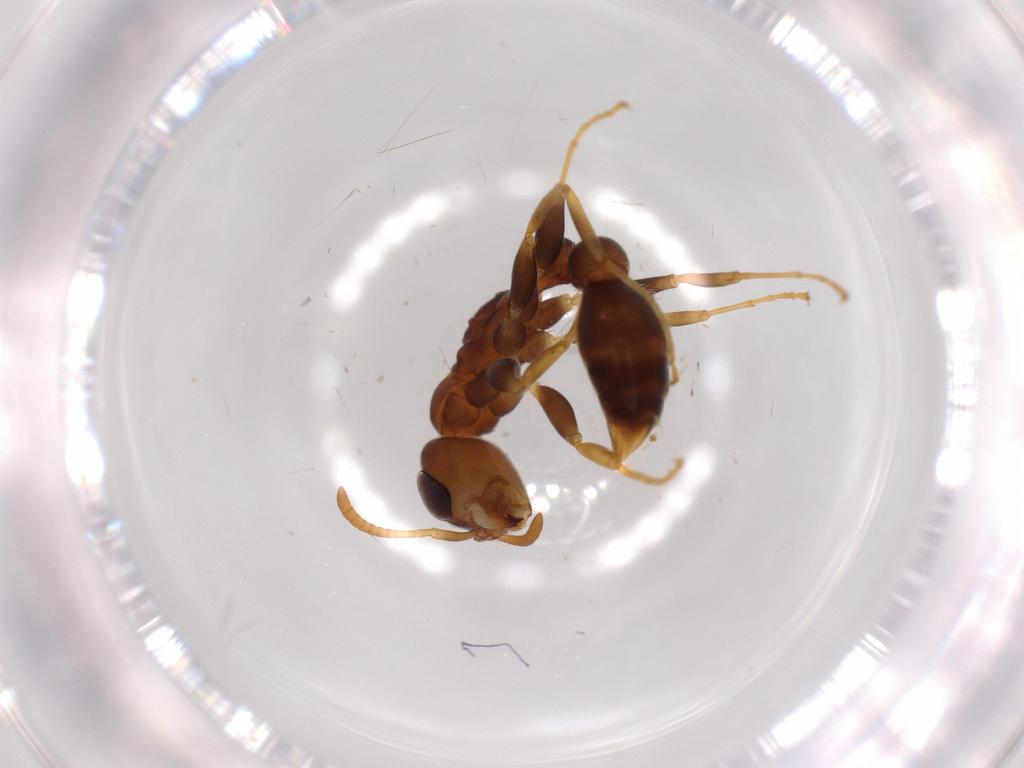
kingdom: Animalia
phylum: Arthropoda
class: Insecta
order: Hymenoptera
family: Formicidae
